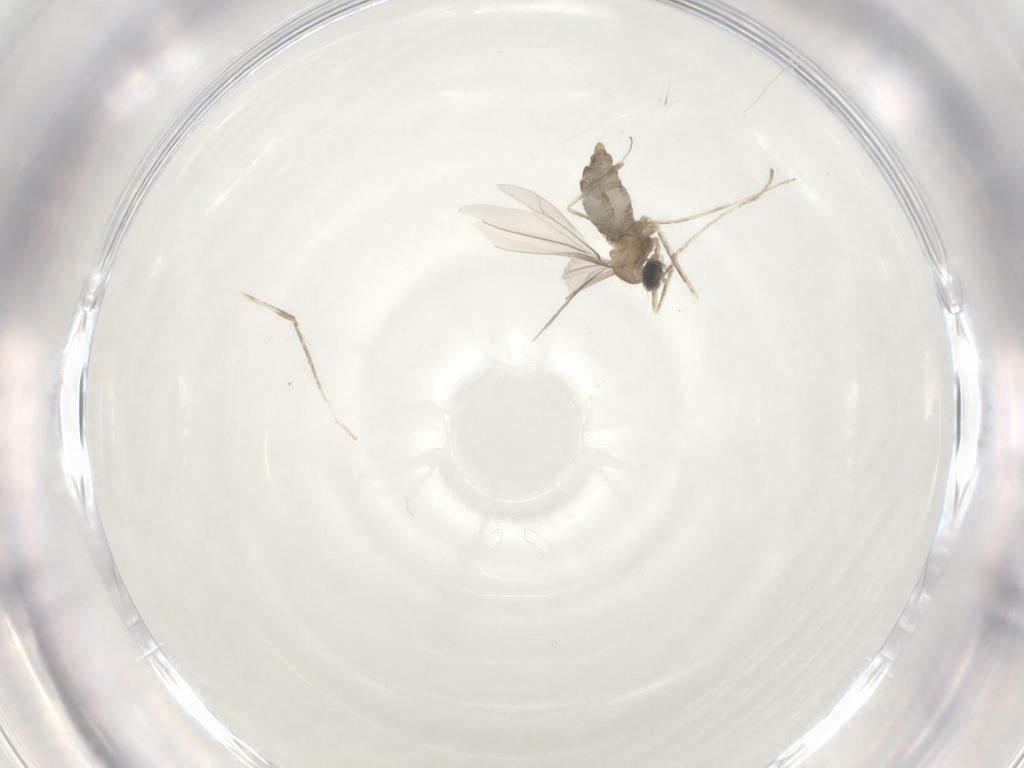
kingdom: Animalia
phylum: Arthropoda
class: Insecta
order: Diptera
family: Cecidomyiidae
